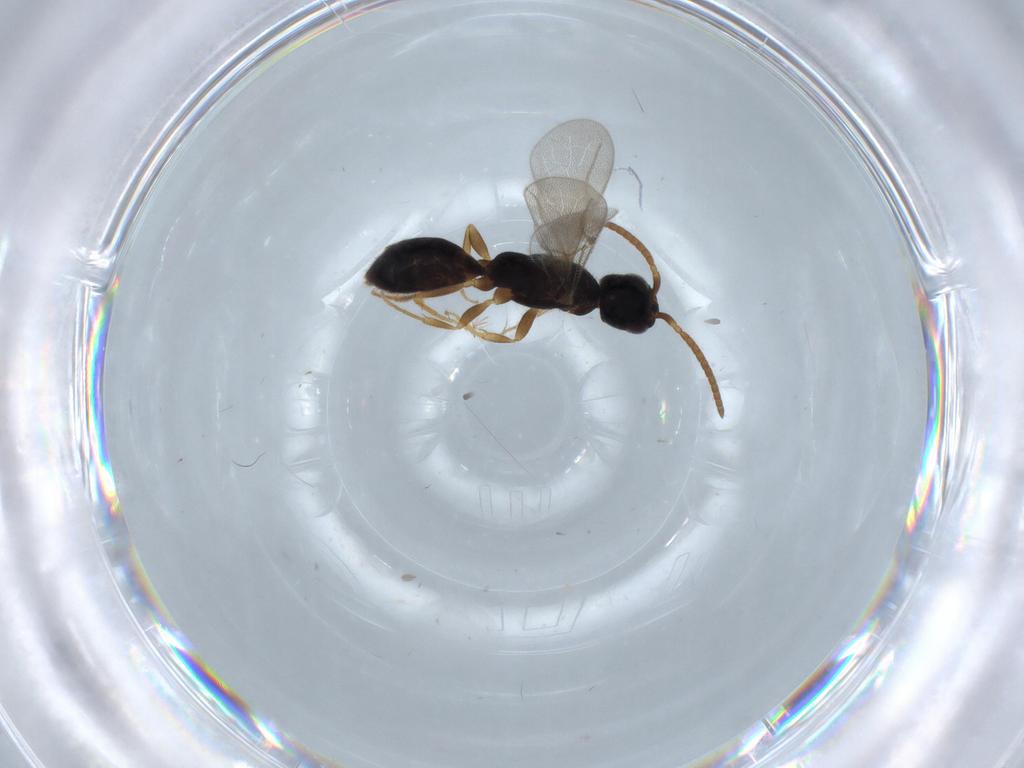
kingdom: Animalia
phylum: Arthropoda
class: Insecta
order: Hymenoptera
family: Bethylidae
